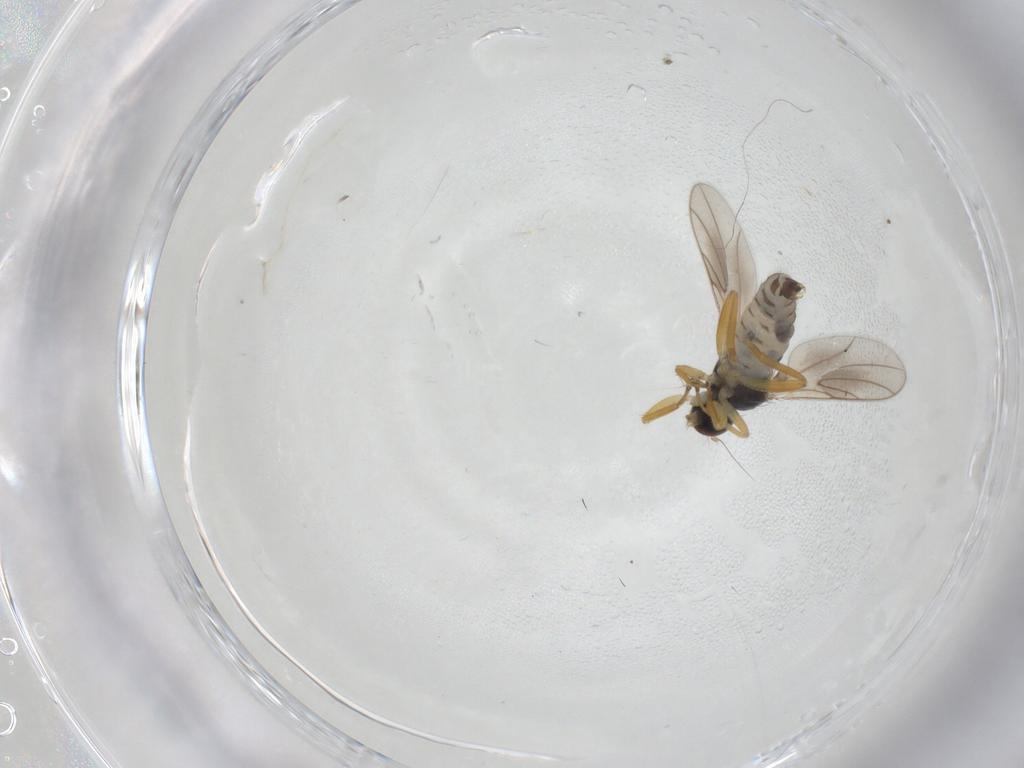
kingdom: Animalia
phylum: Arthropoda
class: Insecta
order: Diptera
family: Hybotidae
